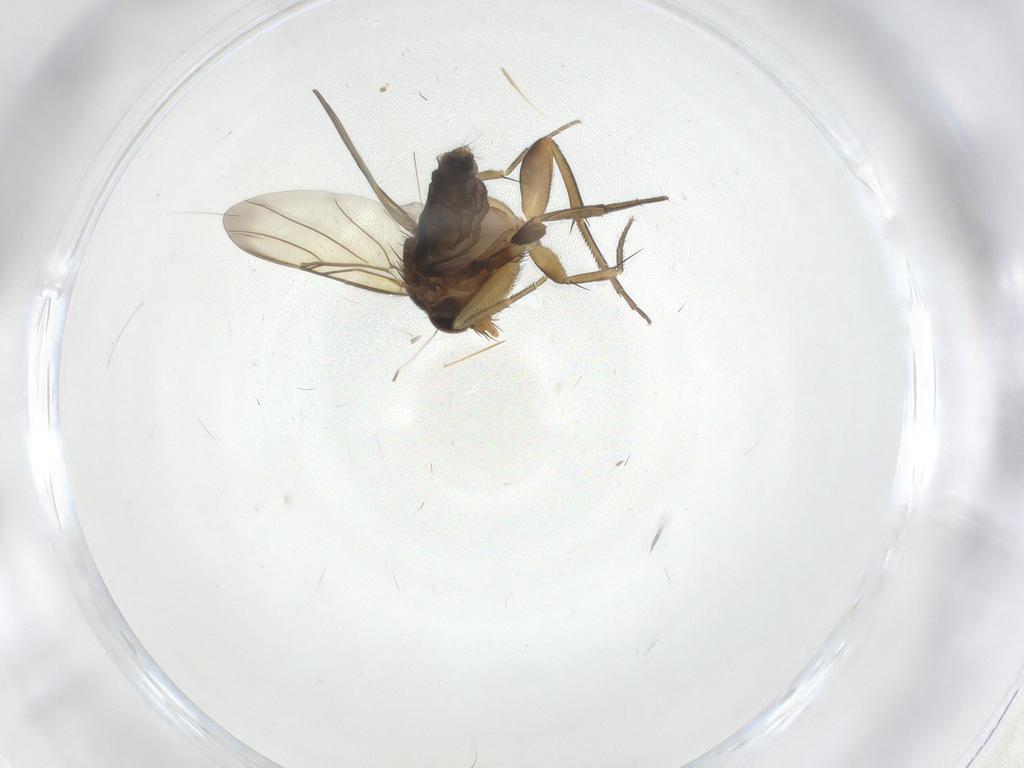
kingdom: Animalia
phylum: Arthropoda
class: Insecta
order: Diptera
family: Phoridae
